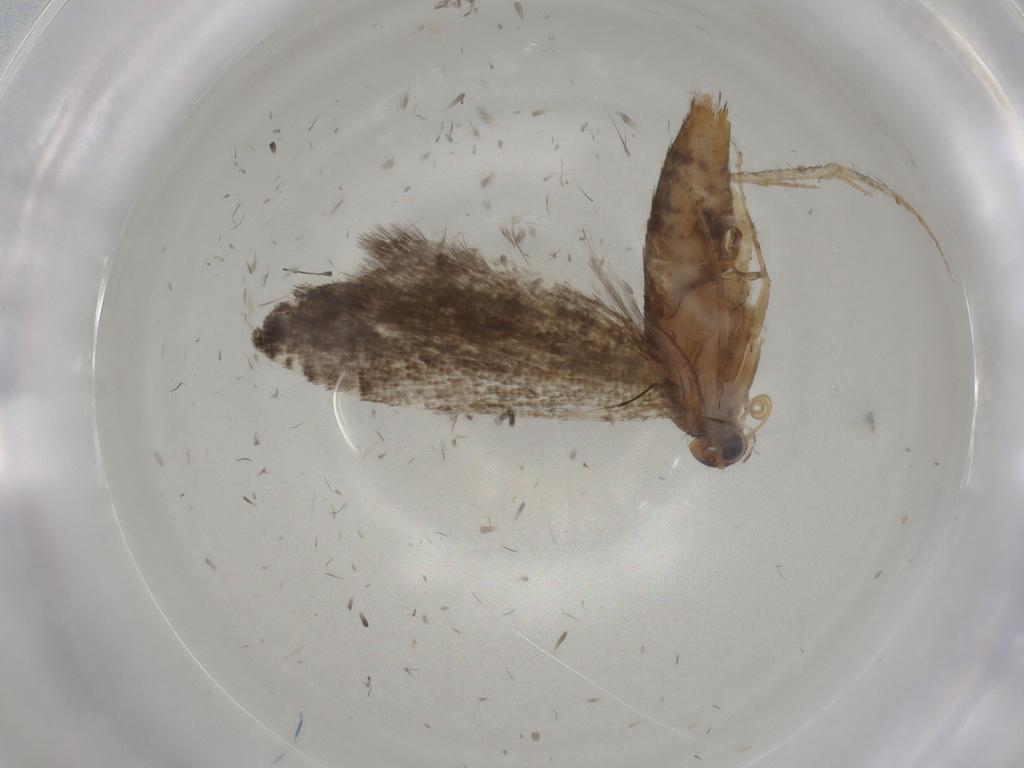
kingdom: Animalia
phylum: Arthropoda
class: Insecta
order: Lepidoptera
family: Glyphipterigidae
